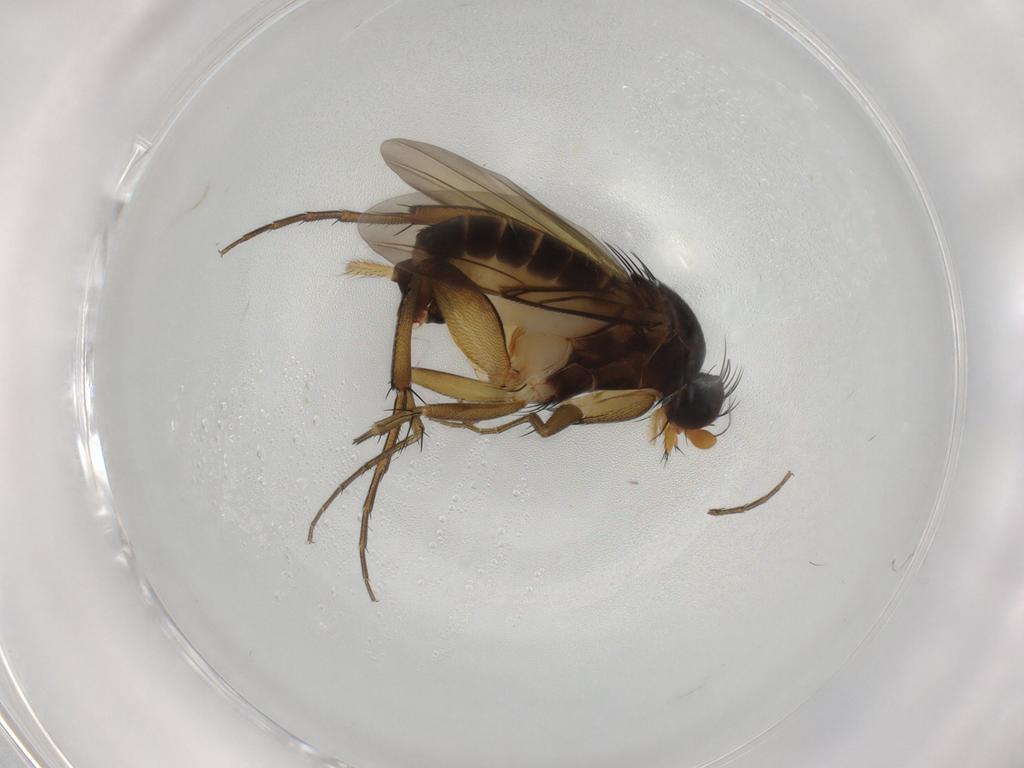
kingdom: Animalia
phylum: Arthropoda
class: Insecta
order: Diptera
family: Phoridae
